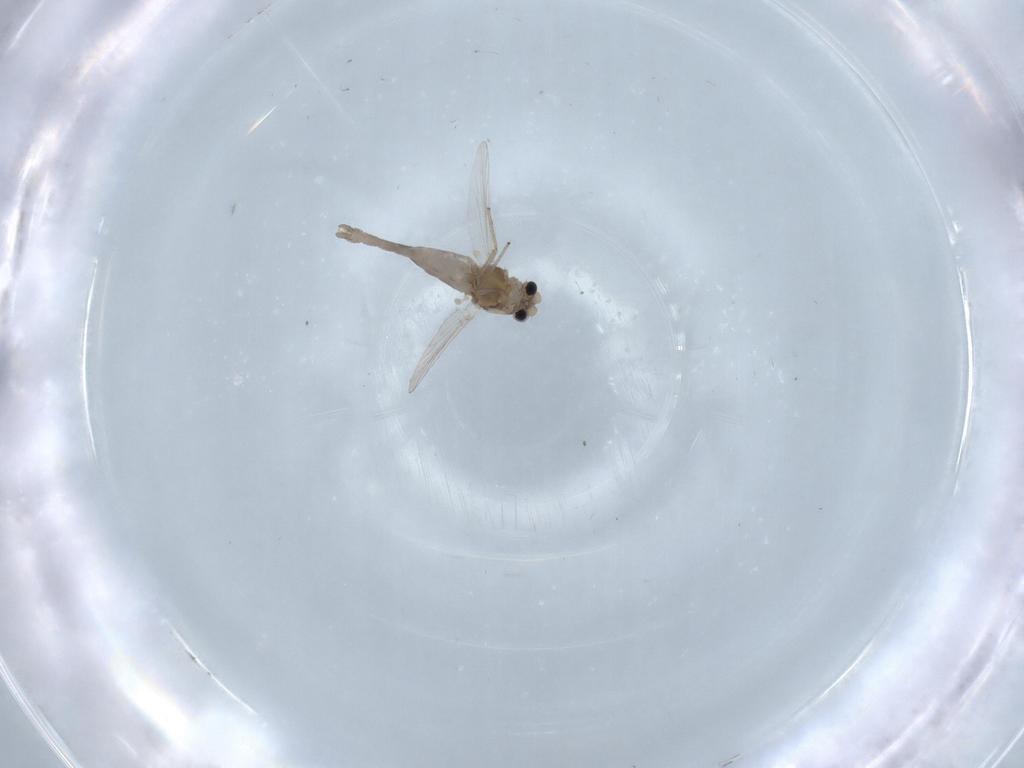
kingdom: Animalia
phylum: Arthropoda
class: Insecta
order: Diptera
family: Chironomidae
